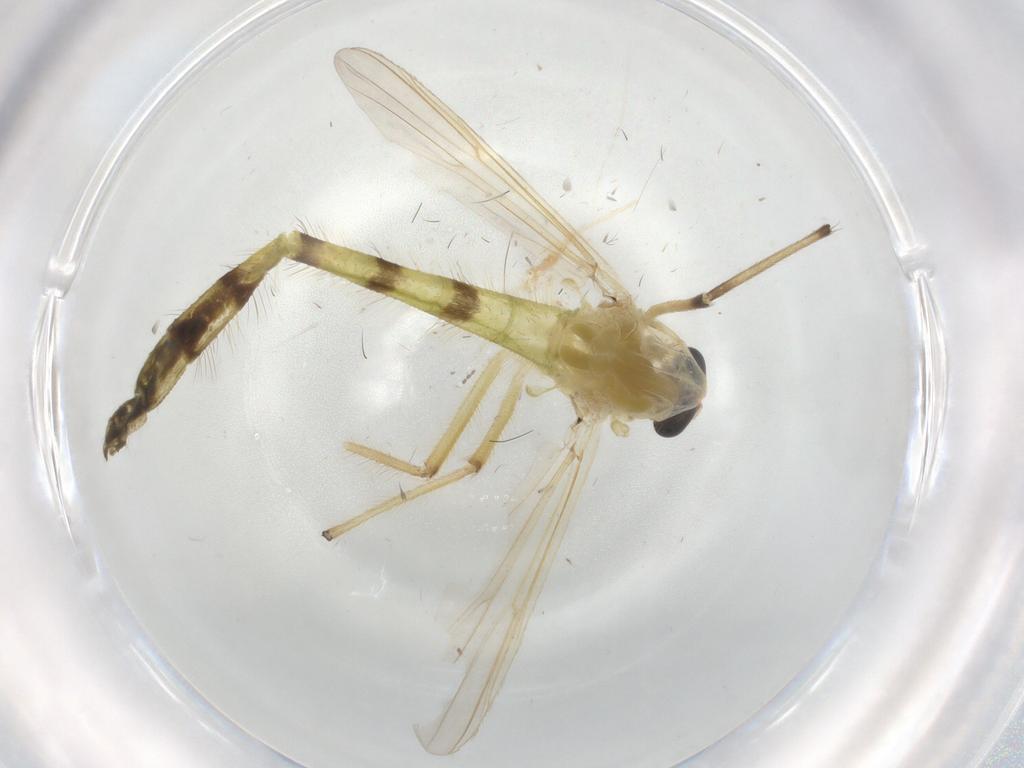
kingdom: Animalia
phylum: Arthropoda
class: Insecta
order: Diptera
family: Chironomidae
